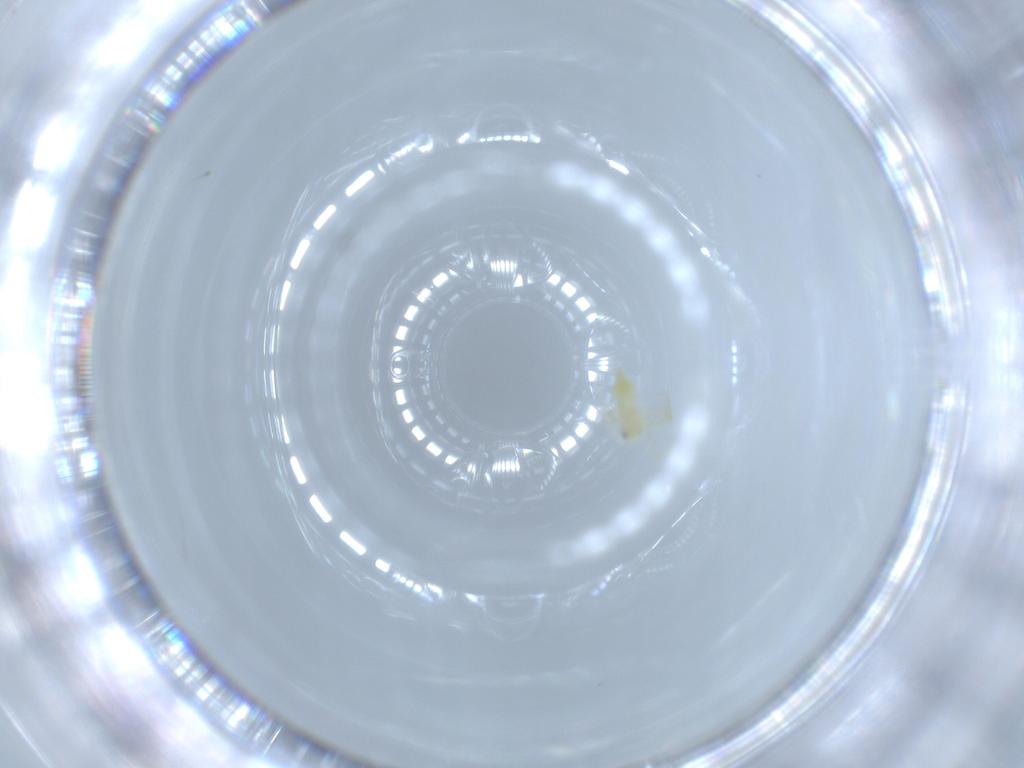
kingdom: Animalia
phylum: Arthropoda
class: Insecta
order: Hemiptera
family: Aleyrodidae
